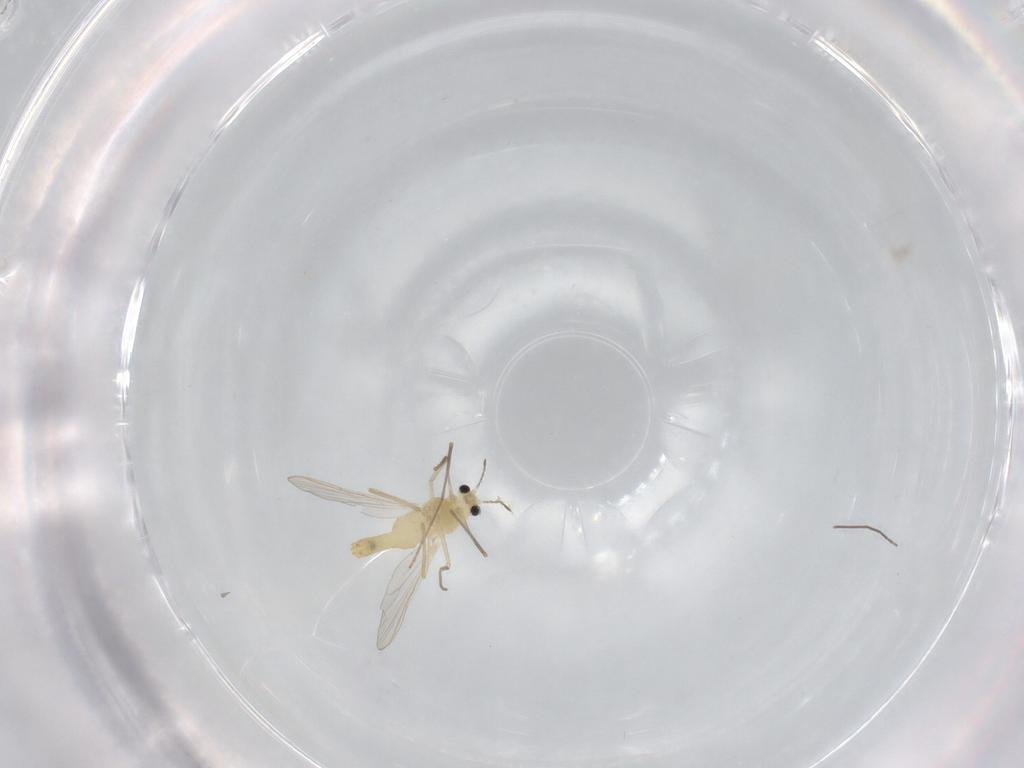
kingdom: Animalia
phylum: Arthropoda
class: Insecta
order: Diptera
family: Chironomidae
